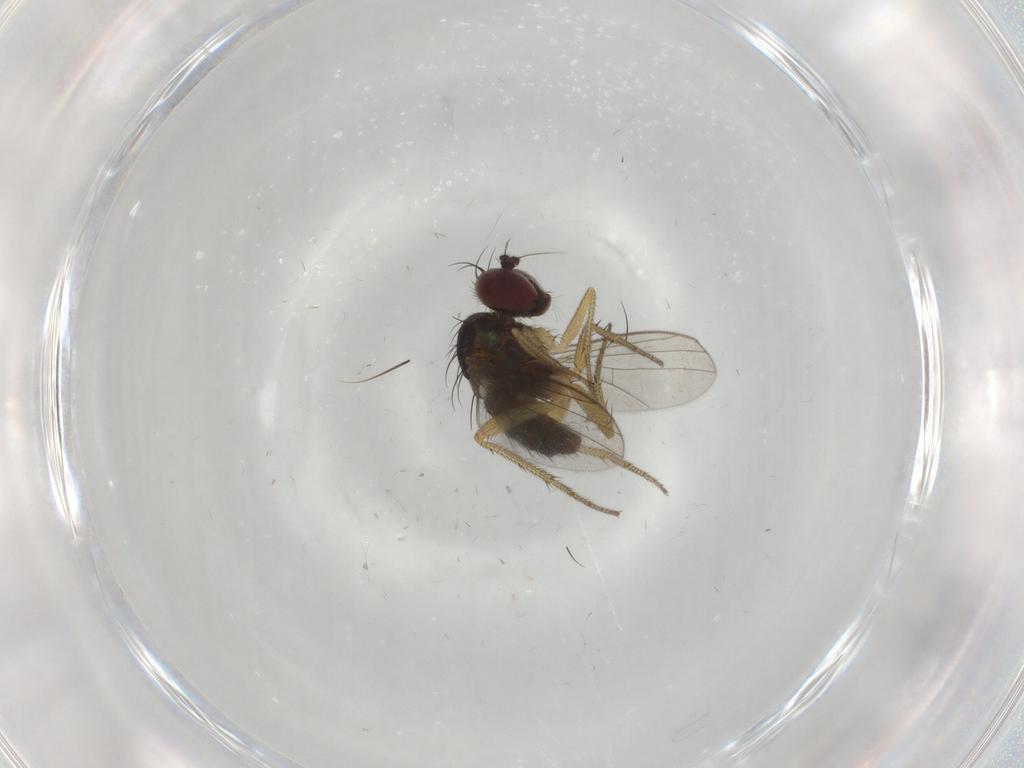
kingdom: Animalia
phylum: Arthropoda
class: Insecta
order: Diptera
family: Dolichopodidae
